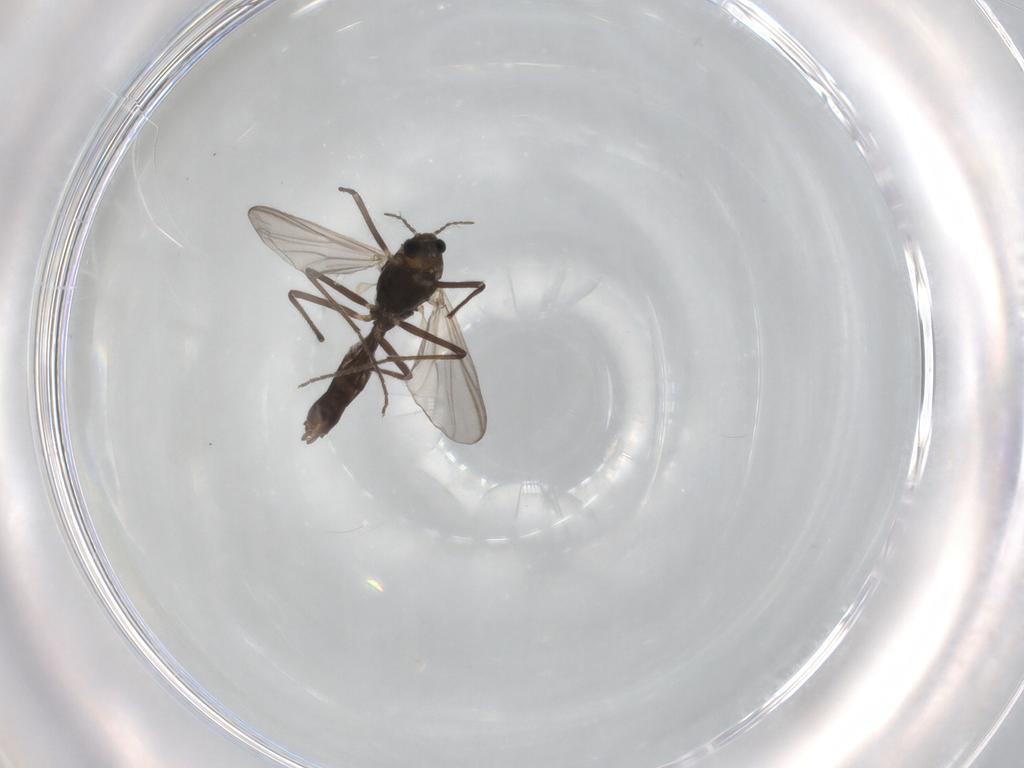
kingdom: Animalia
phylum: Arthropoda
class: Insecta
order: Diptera
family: Chironomidae
